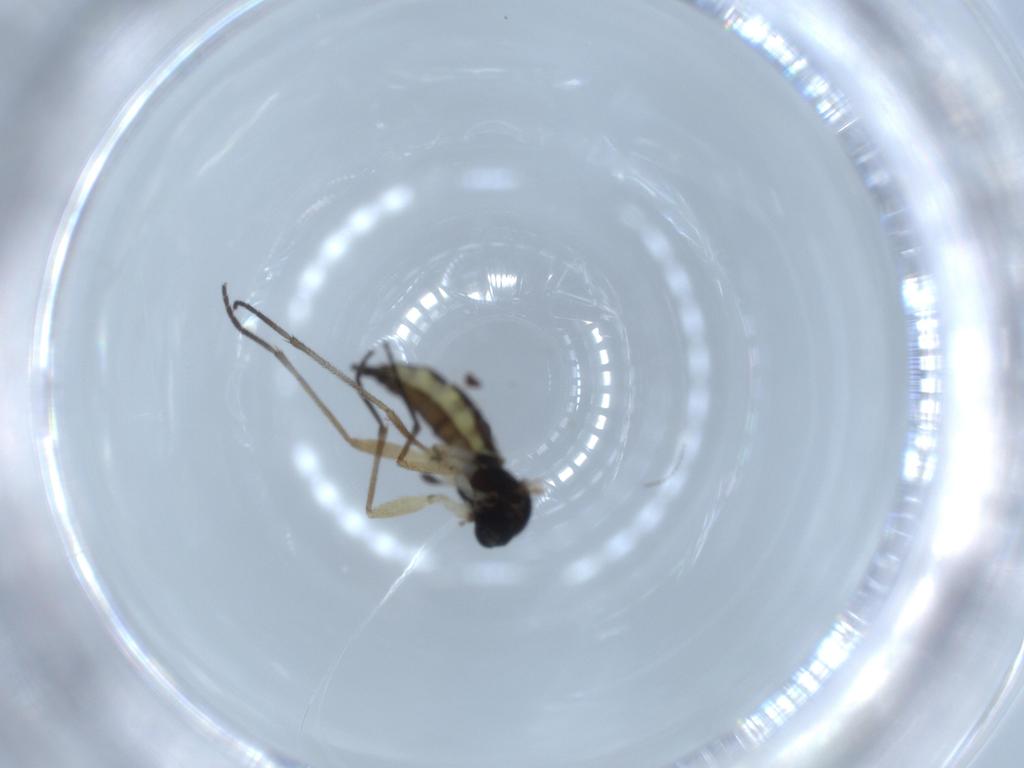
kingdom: Animalia
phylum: Arthropoda
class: Insecta
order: Diptera
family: Sciaridae
